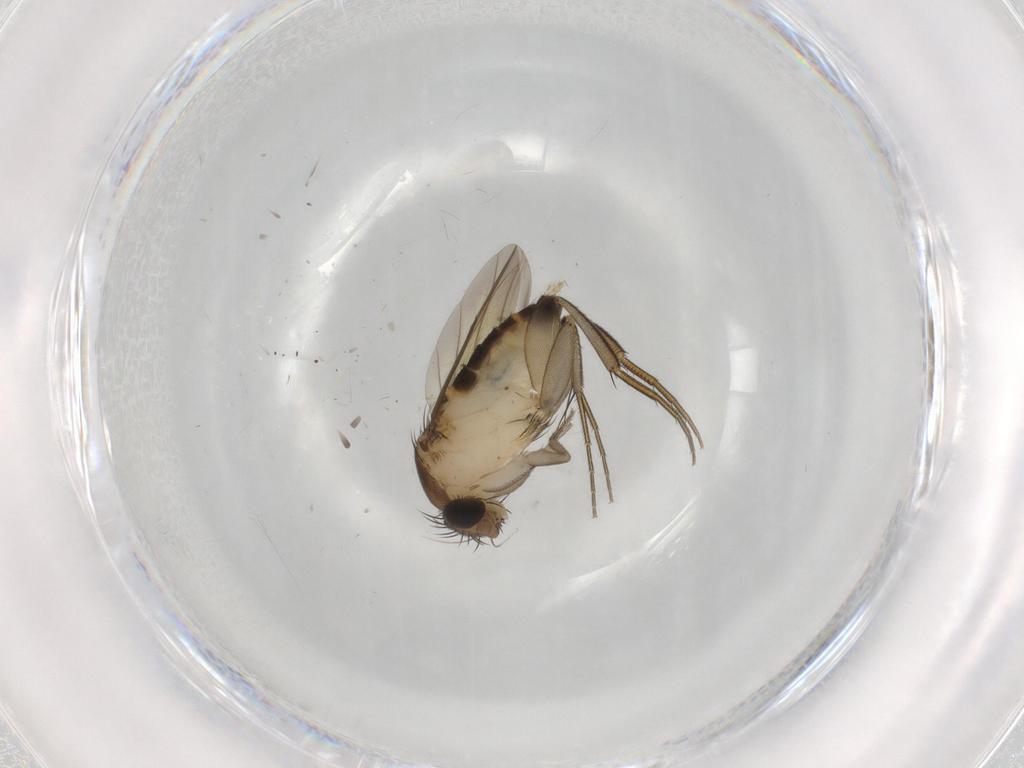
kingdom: Animalia
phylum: Arthropoda
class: Insecta
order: Diptera
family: Phoridae
